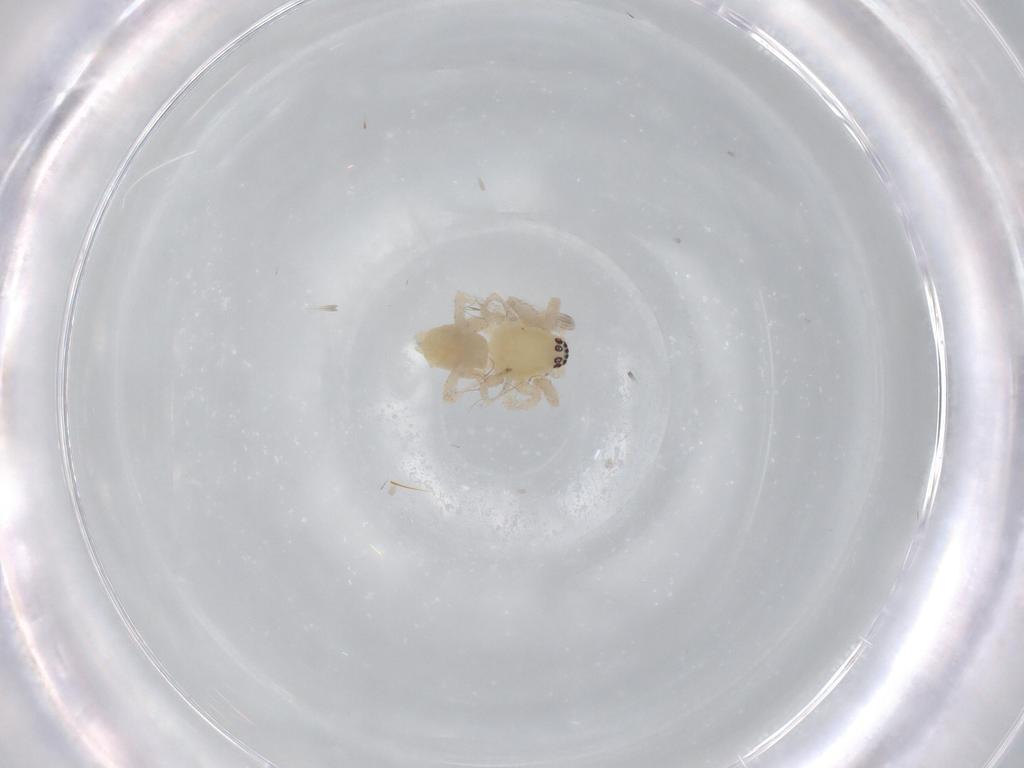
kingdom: Animalia
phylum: Arthropoda
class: Arachnida
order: Araneae
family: Anyphaenidae
